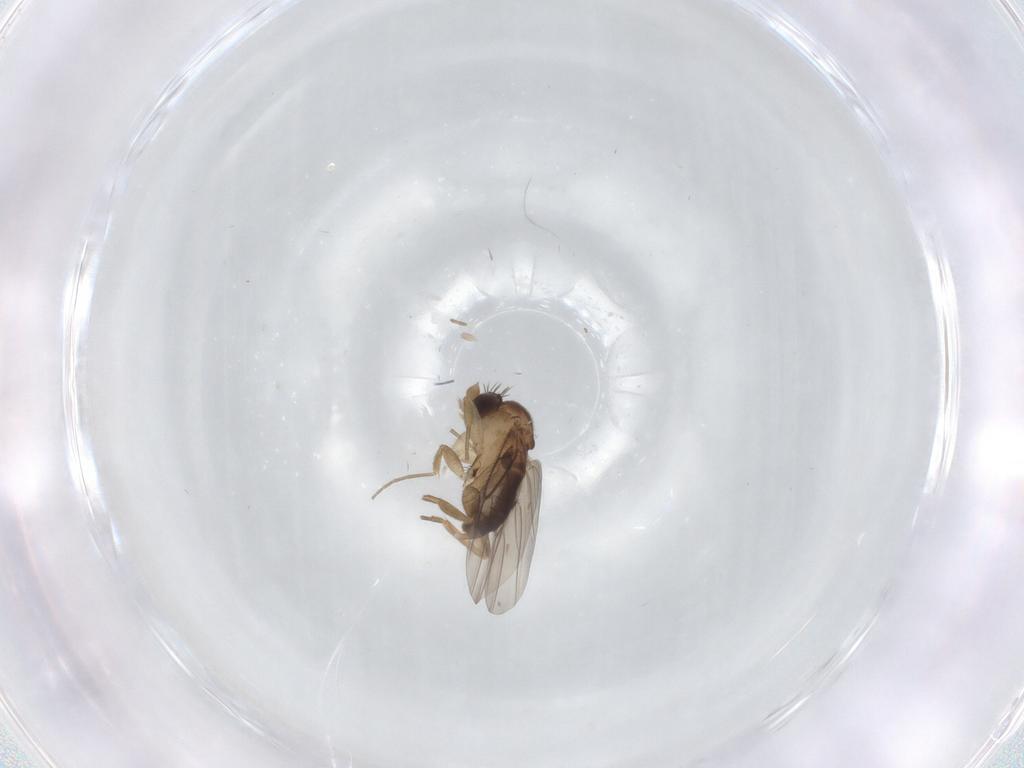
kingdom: Animalia
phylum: Arthropoda
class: Insecta
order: Diptera
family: Phoridae
